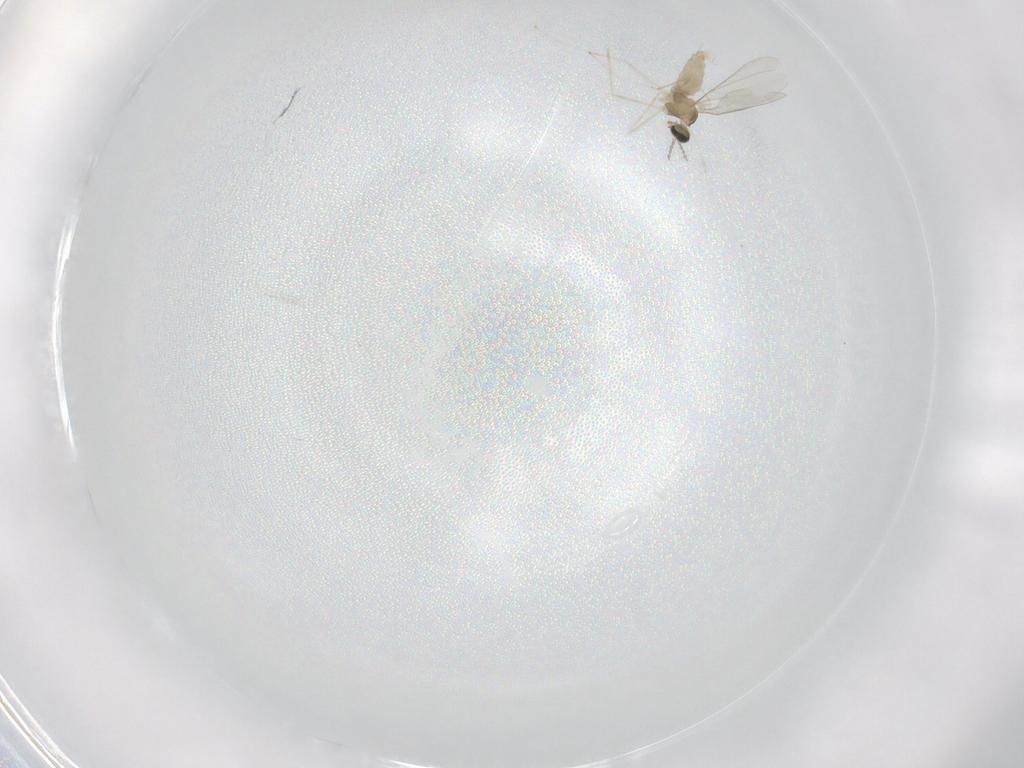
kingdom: Animalia
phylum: Arthropoda
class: Insecta
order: Diptera
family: Cecidomyiidae
